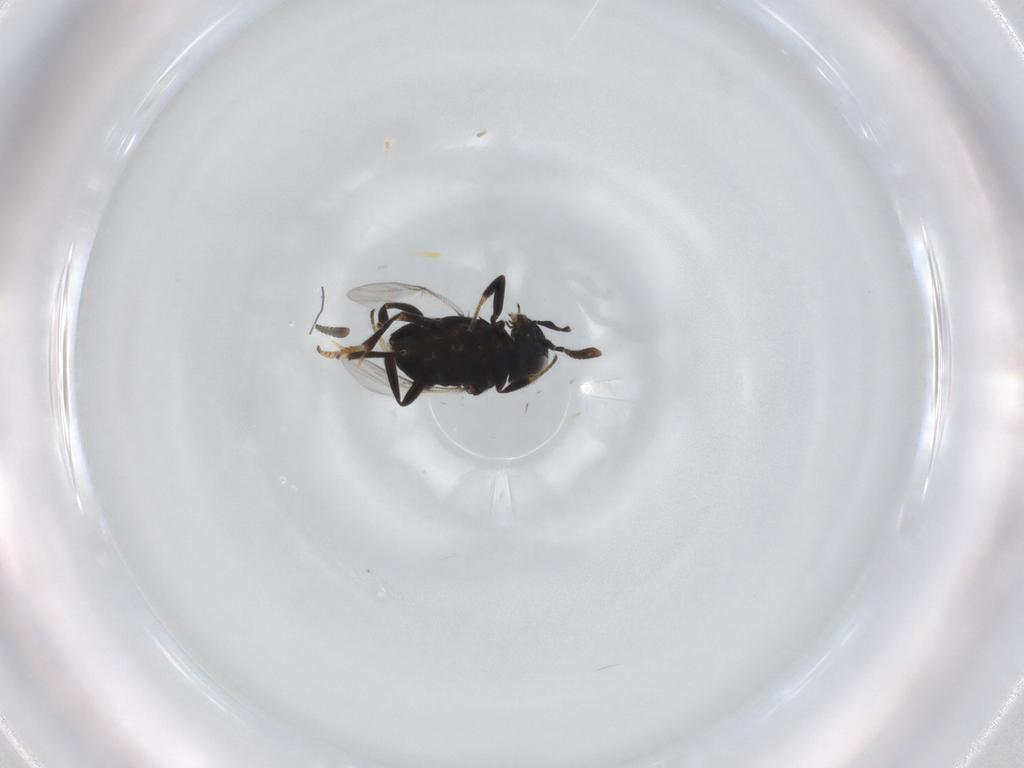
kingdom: Animalia
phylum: Arthropoda
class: Insecta
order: Hymenoptera
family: Encyrtidae
